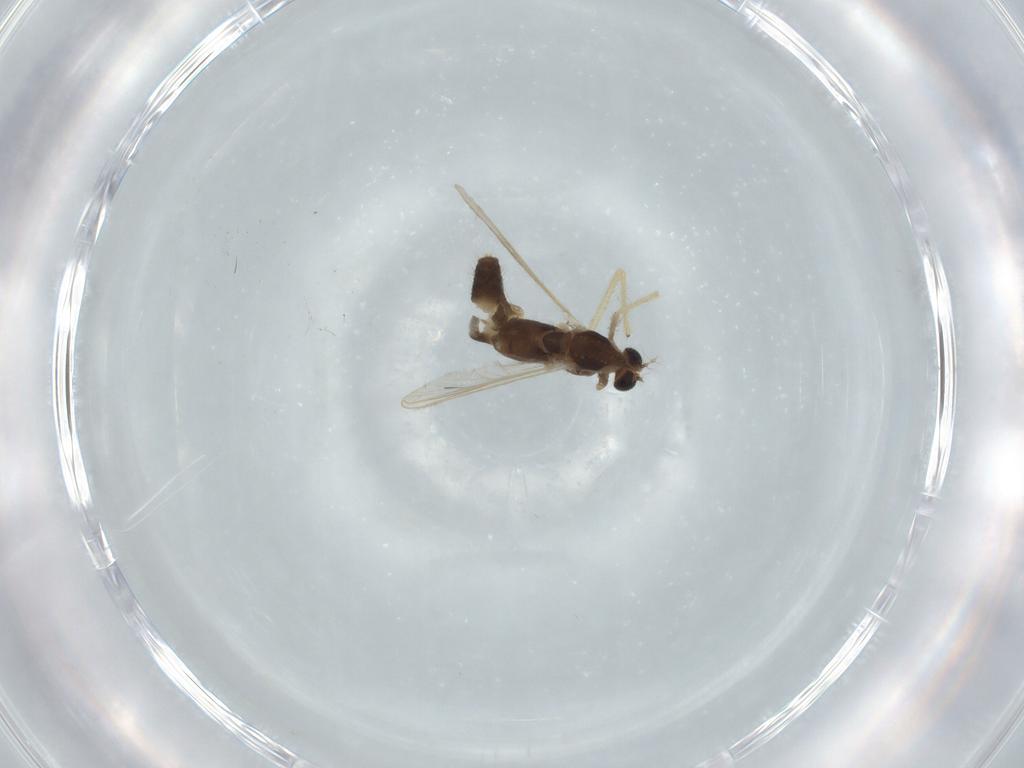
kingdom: Animalia
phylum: Arthropoda
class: Insecta
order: Diptera
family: Chironomidae
